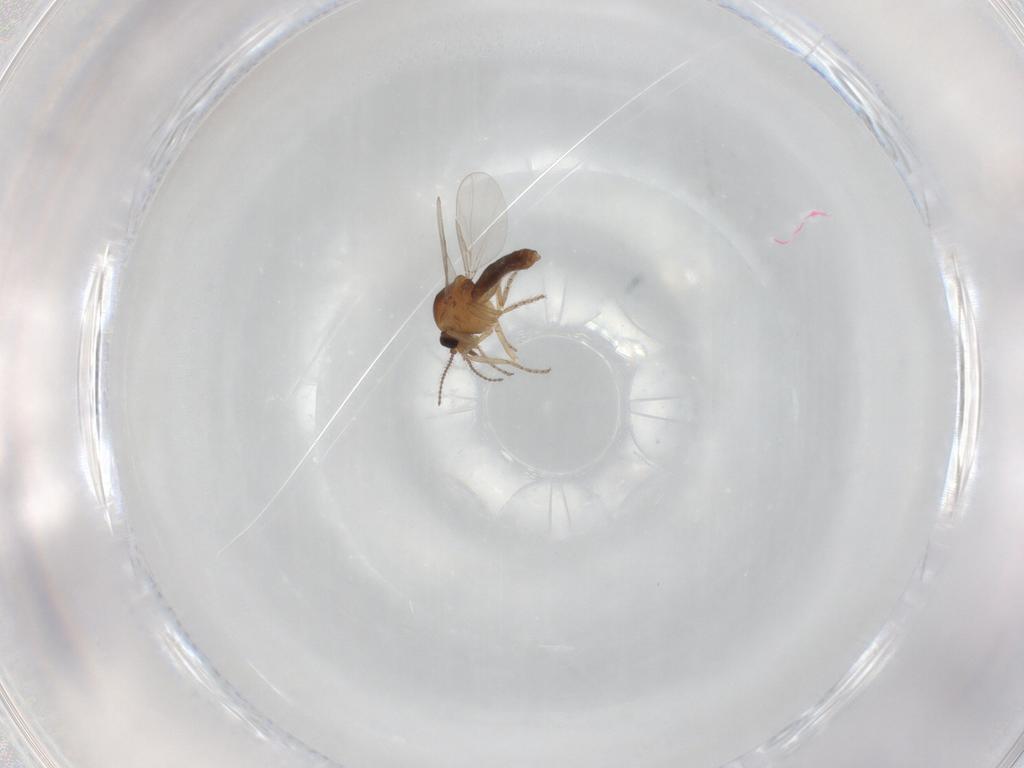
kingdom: Animalia
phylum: Arthropoda
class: Insecta
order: Diptera
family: Ceratopogonidae
